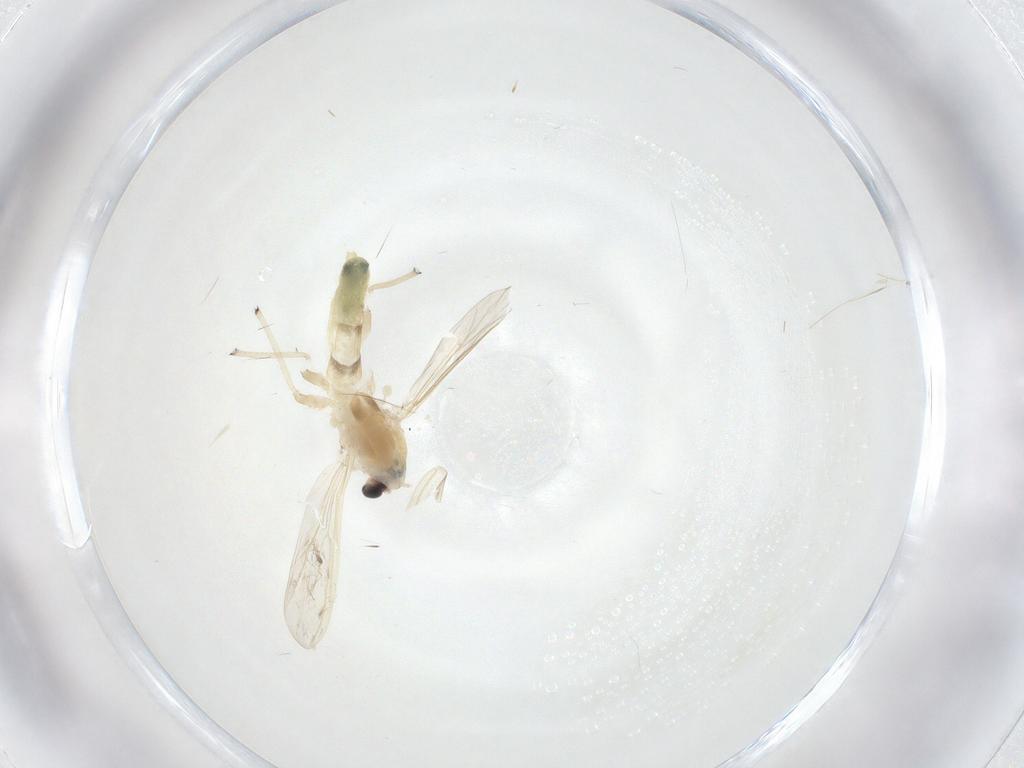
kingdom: Animalia
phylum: Arthropoda
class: Insecta
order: Diptera
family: Chironomidae
